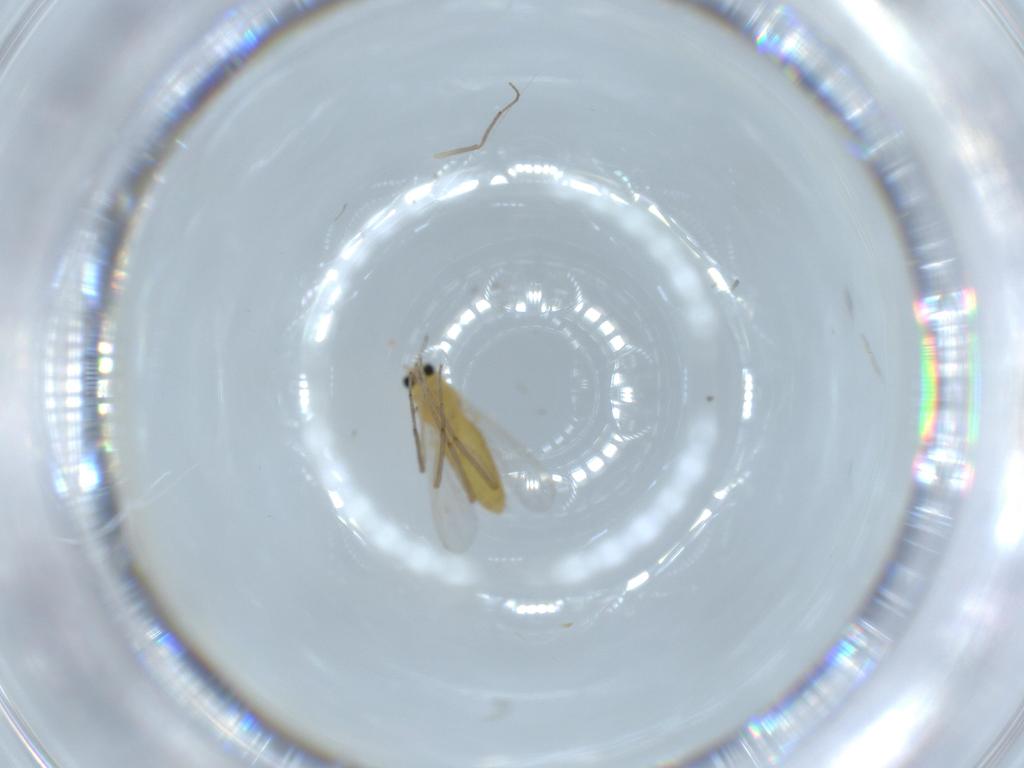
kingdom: Animalia
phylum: Arthropoda
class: Insecta
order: Diptera
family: Chironomidae
